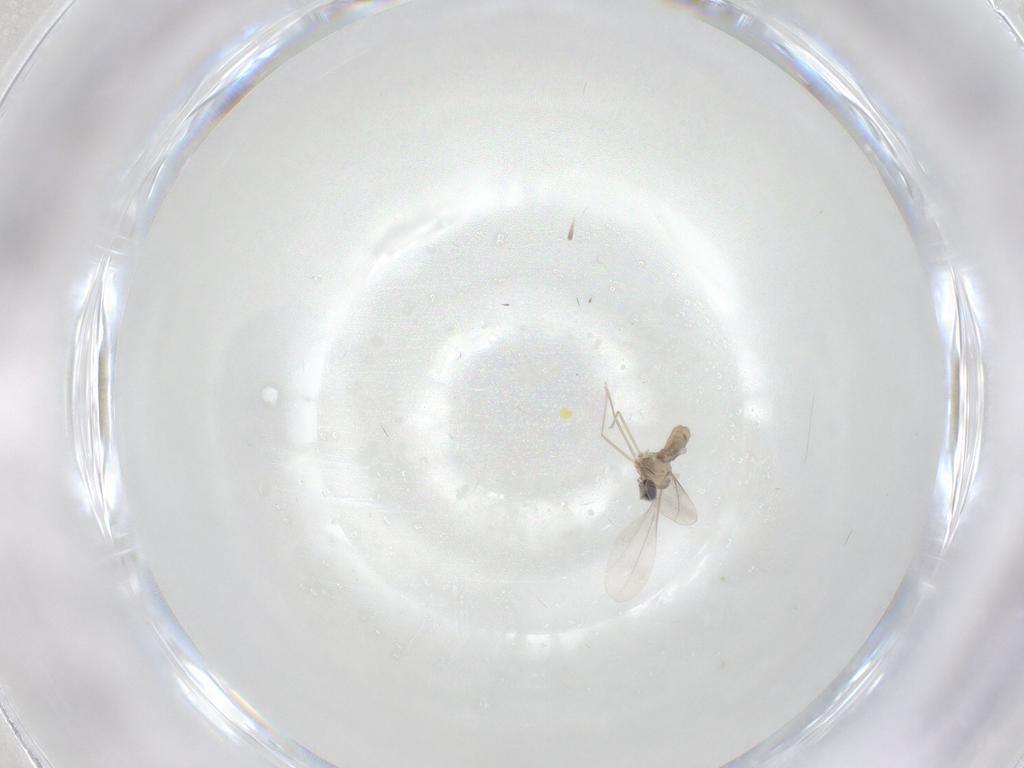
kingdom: Animalia
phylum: Arthropoda
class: Insecta
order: Diptera
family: Cecidomyiidae
